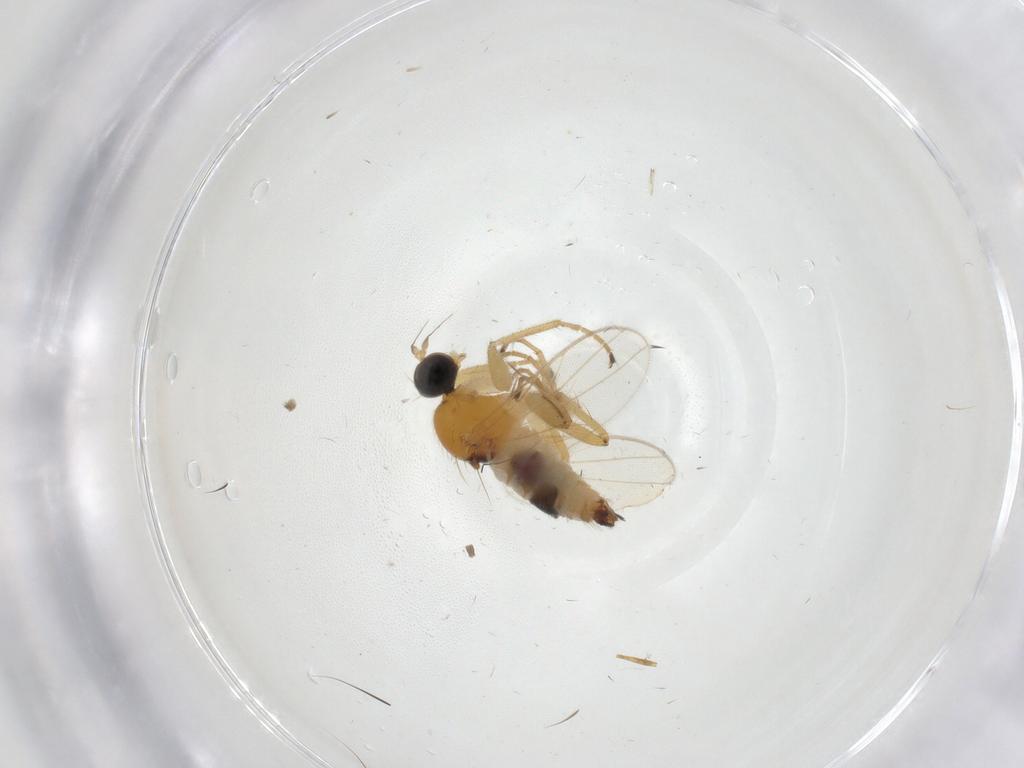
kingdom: Animalia
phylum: Arthropoda
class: Insecta
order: Diptera
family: Hybotidae
